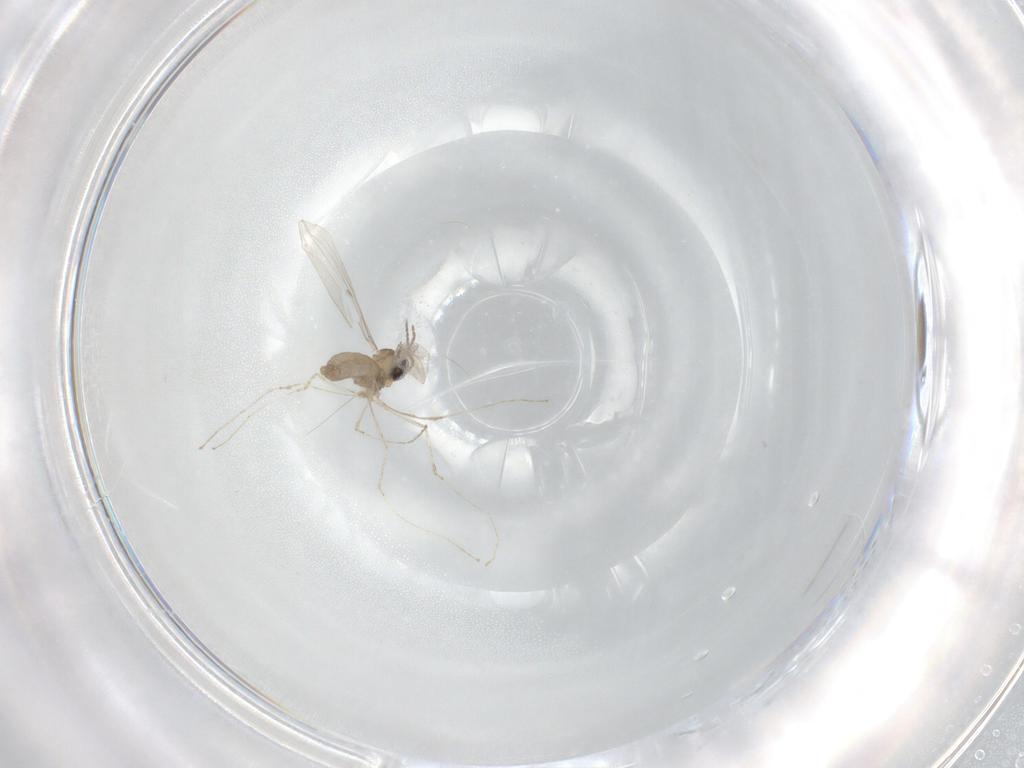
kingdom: Animalia
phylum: Arthropoda
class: Insecta
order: Diptera
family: Cecidomyiidae
